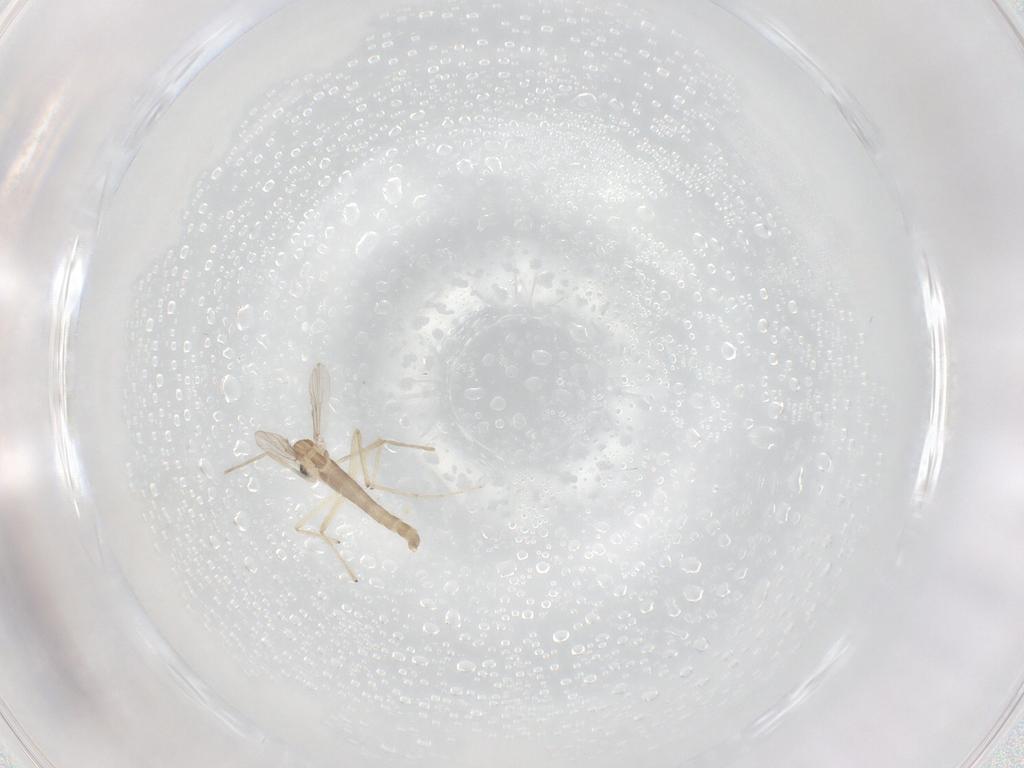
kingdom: Animalia
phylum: Arthropoda
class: Insecta
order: Diptera
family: Chironomidae
